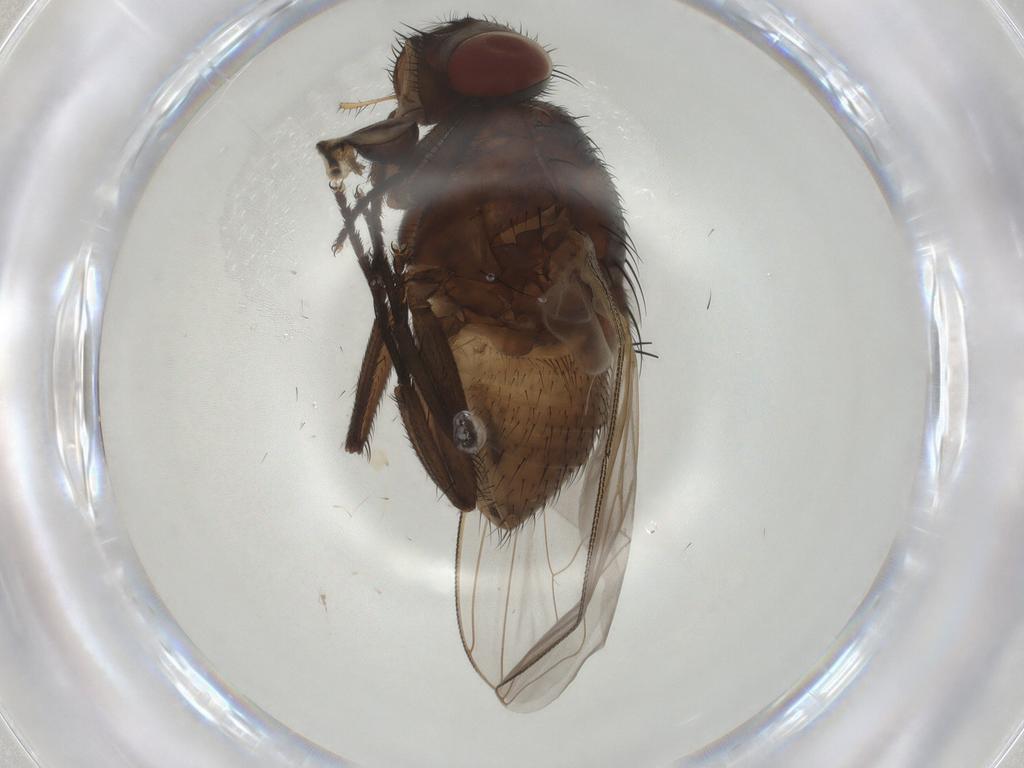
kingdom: Animalia
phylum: Arthropoda
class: Insecta
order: Diptera
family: Muscidae
